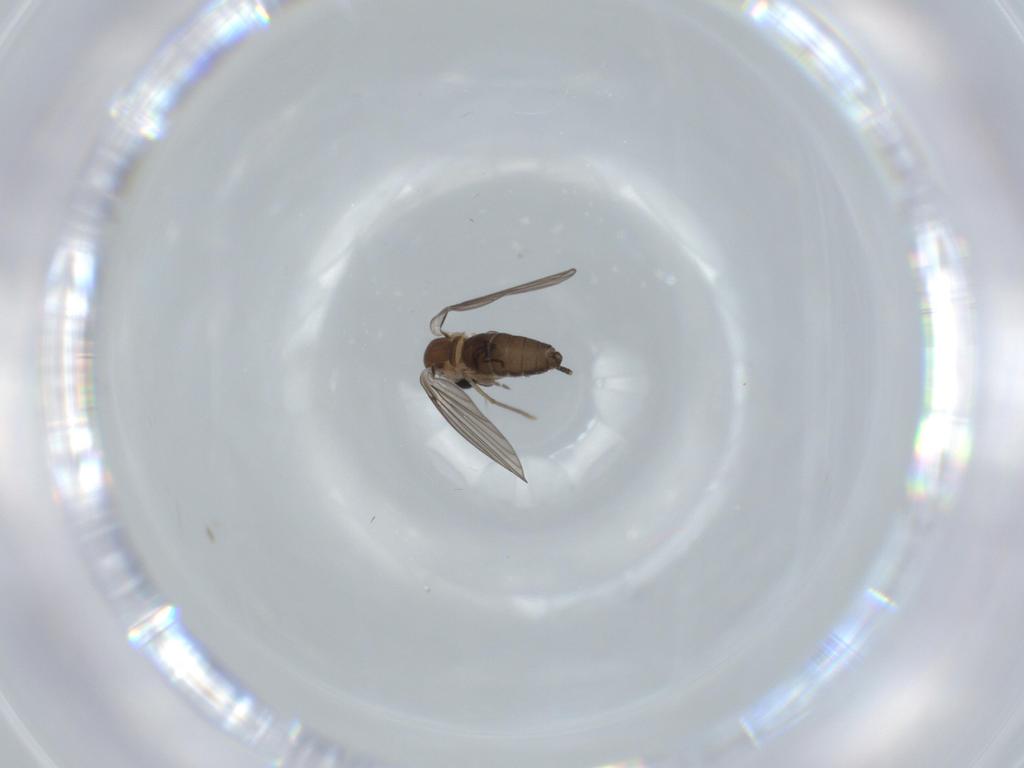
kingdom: Animalia
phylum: Arthropoda
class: Insecta
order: Diptera
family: Psychodidae
